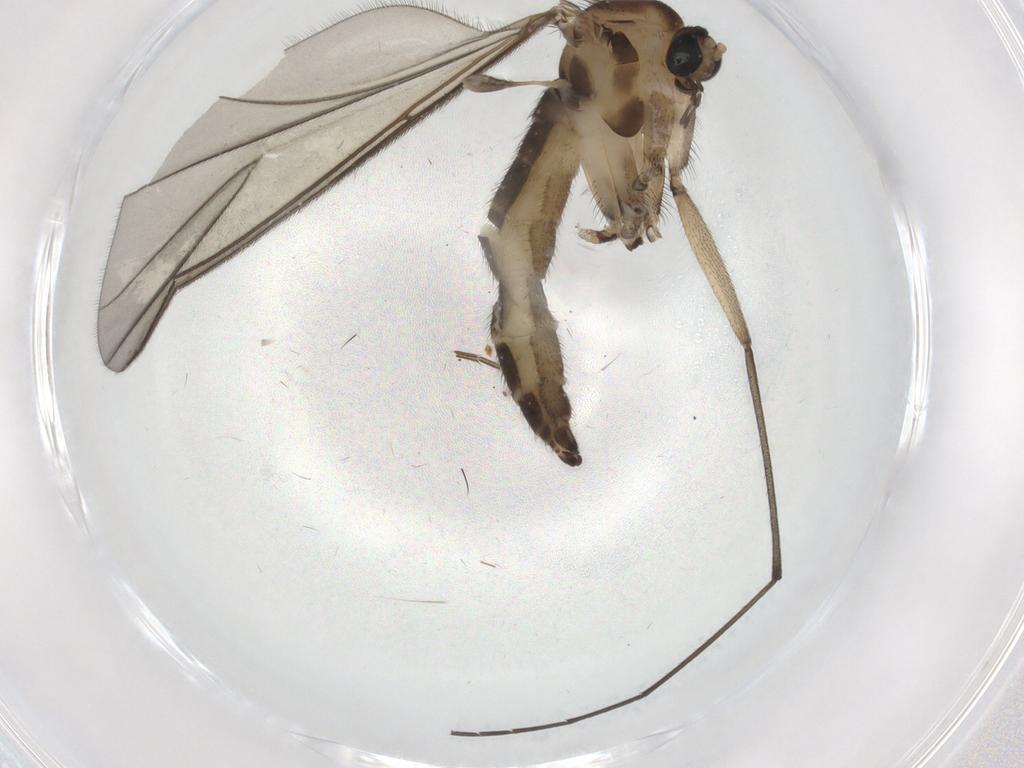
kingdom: Animalia
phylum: Arthropoda
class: Insecta
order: Diptera
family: Sciaridae
